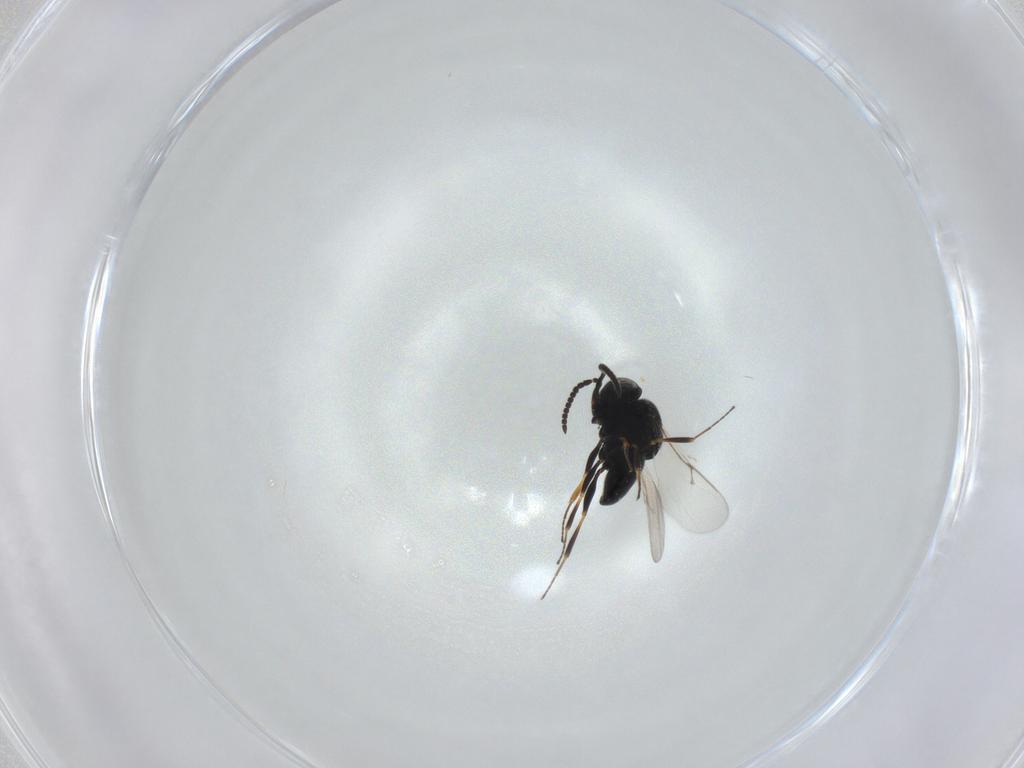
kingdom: Animalia
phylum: Arthropoda
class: Insecta
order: Hymenoptera
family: Scelionidae
